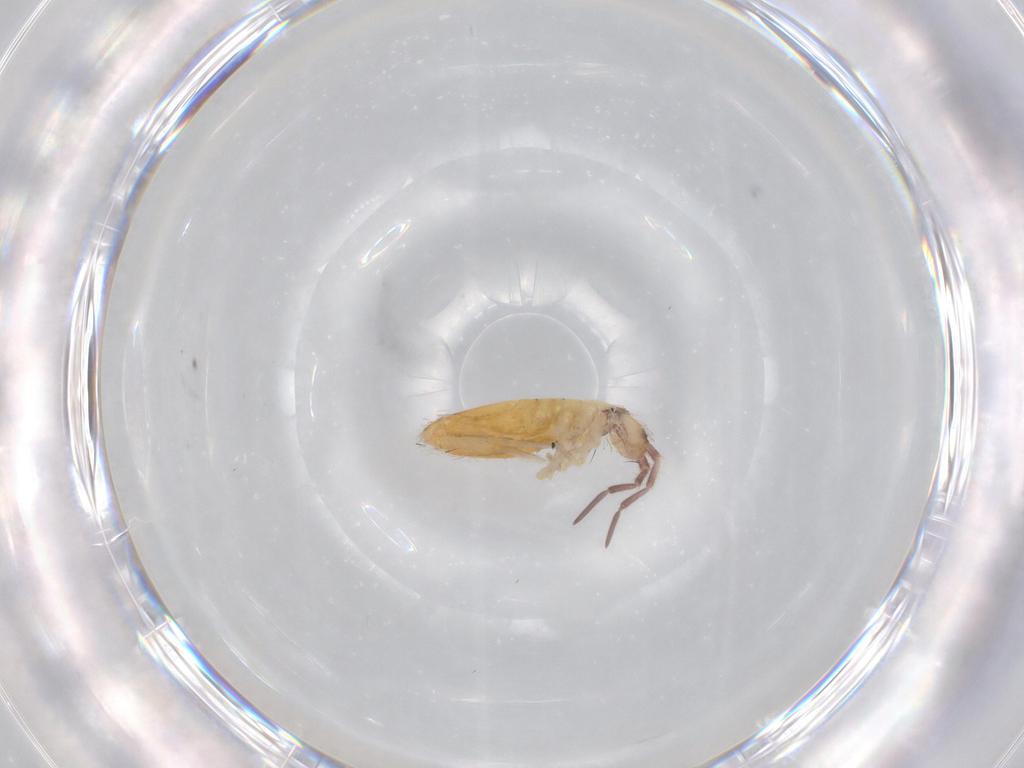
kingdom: Animalia
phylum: Arthropoda
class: Collembola
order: Entomobryomorpha
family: Entomobryidae
